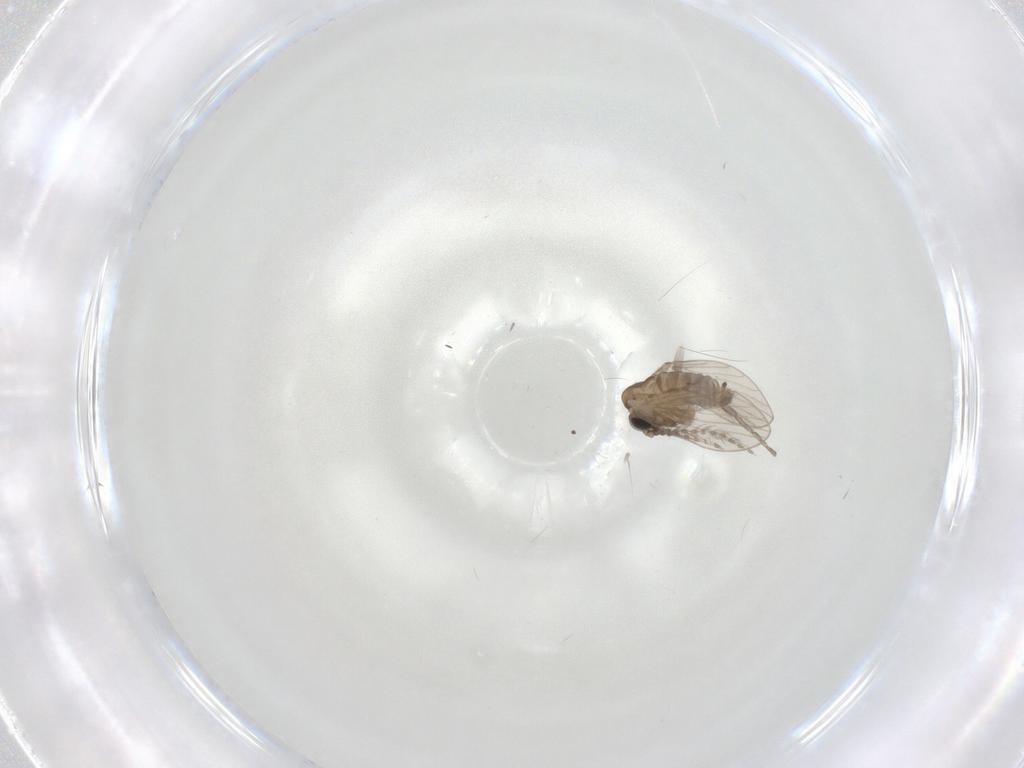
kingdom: Animalia
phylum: Arthropoda
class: Insecta
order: Diptera
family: Psychodidae
